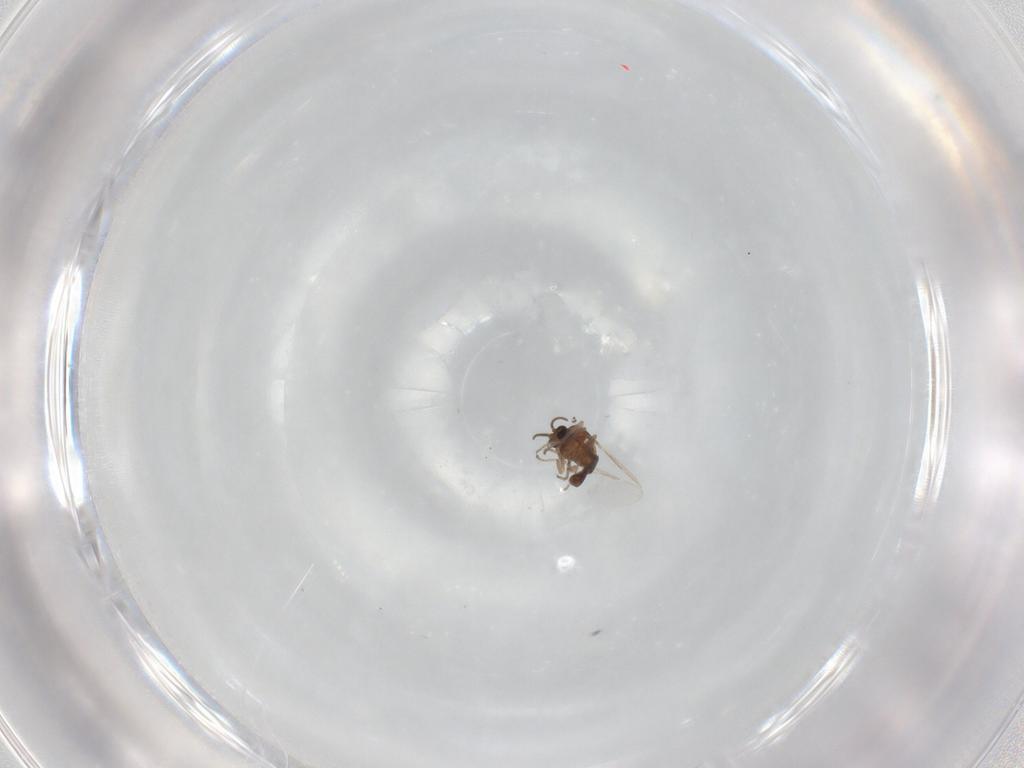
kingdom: Animalia
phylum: Arthropoda
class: Insecta
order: Diptera
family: Ceratopogonidae
